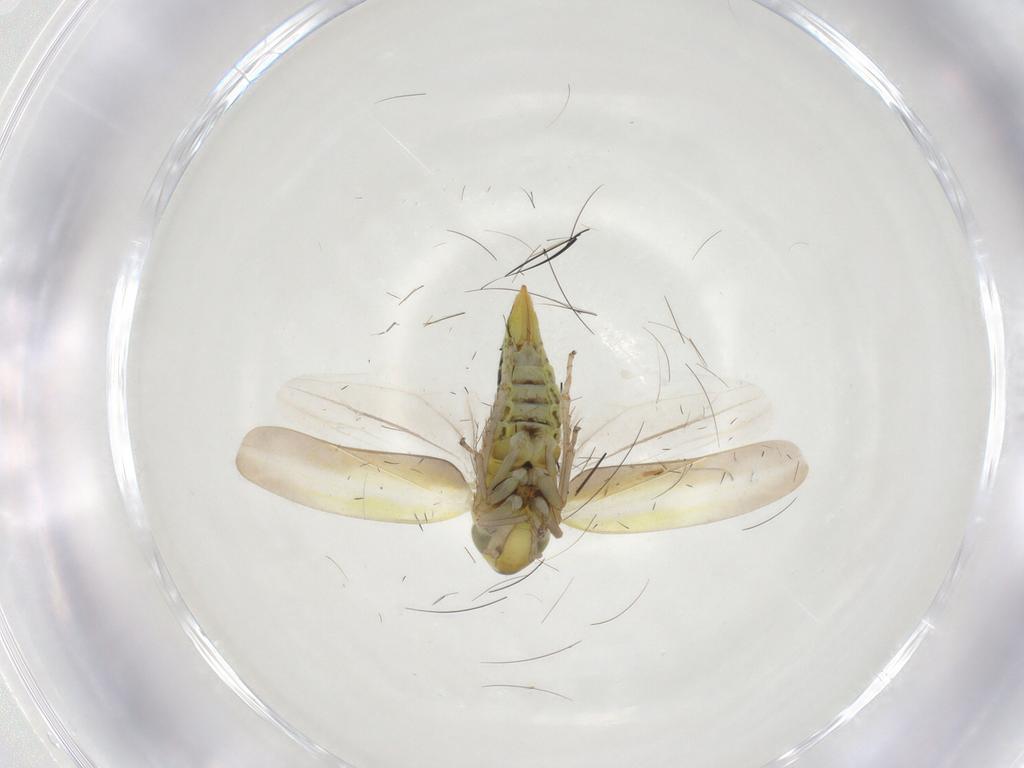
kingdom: Animalia
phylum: Arthropoda
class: Insecta
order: Hemiptera
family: Cicadellidae
